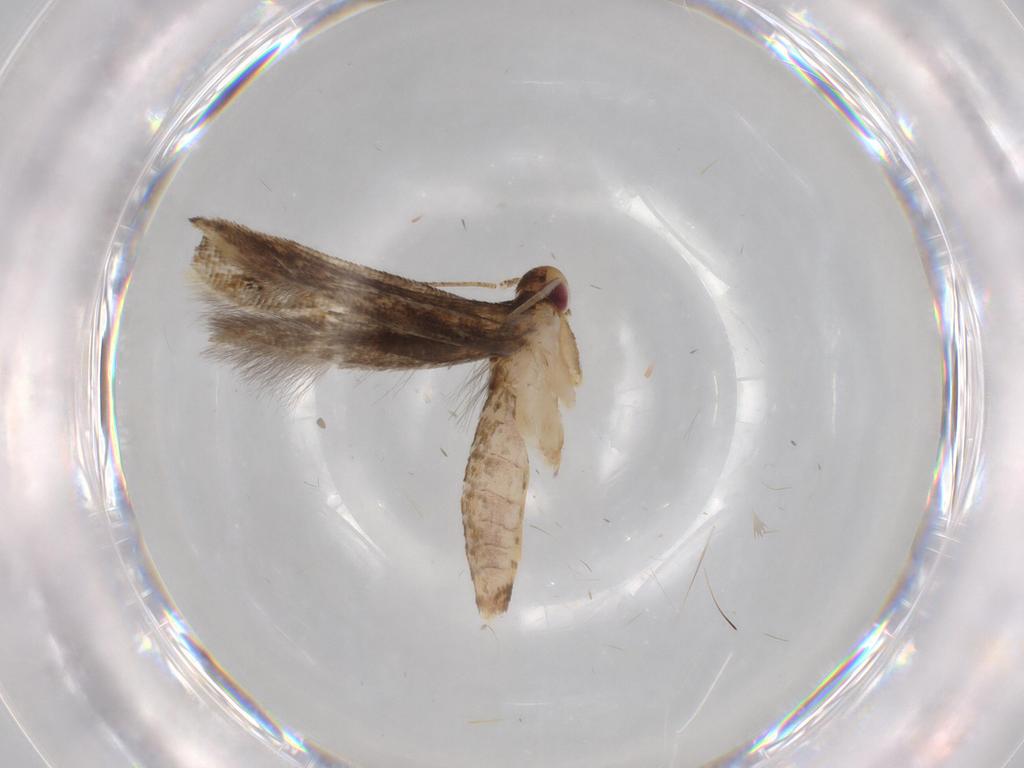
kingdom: Animalia
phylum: Arthropoda
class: Insecta
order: Lepidoptera
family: Momphidae
